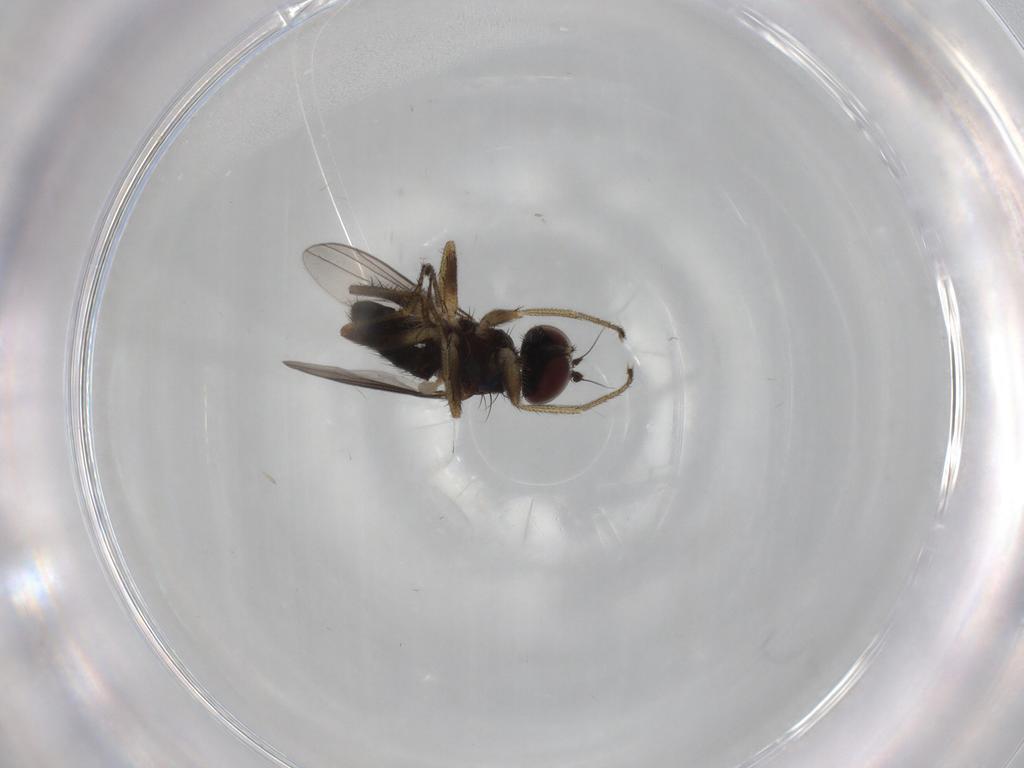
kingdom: Animalia
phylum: Arthropoda
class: Insecta
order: Diptera
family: Dolichopodidae
